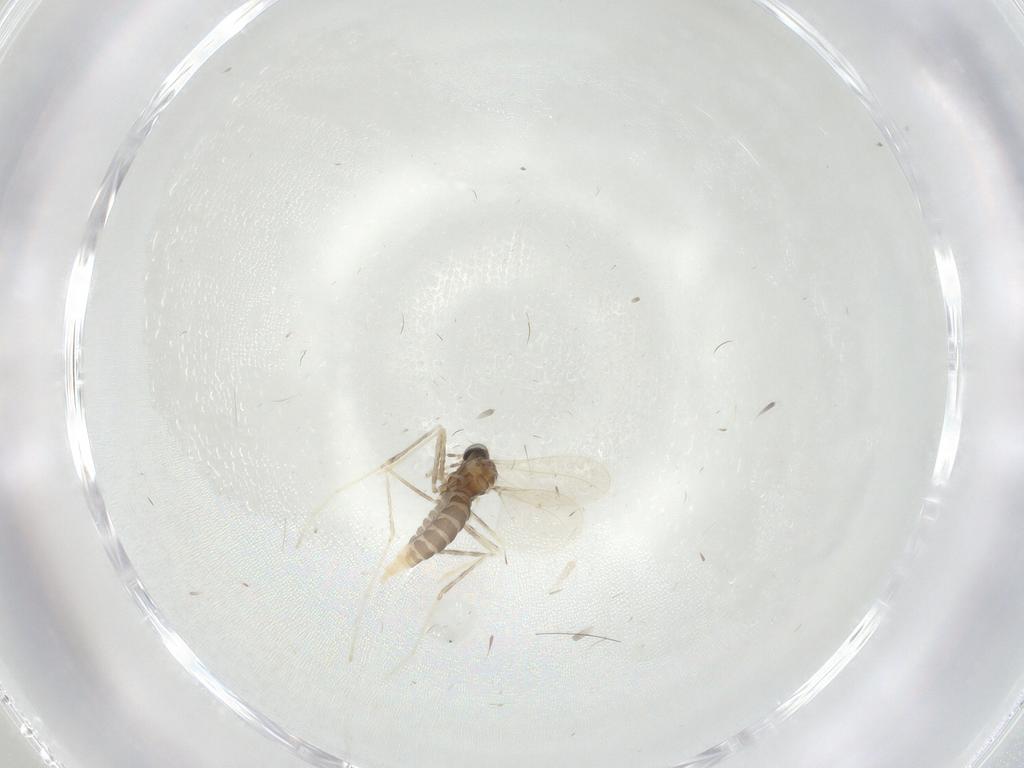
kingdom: Animalia
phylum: Arthropoda
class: Insecta
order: Diptera
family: Cecidomyiidae
